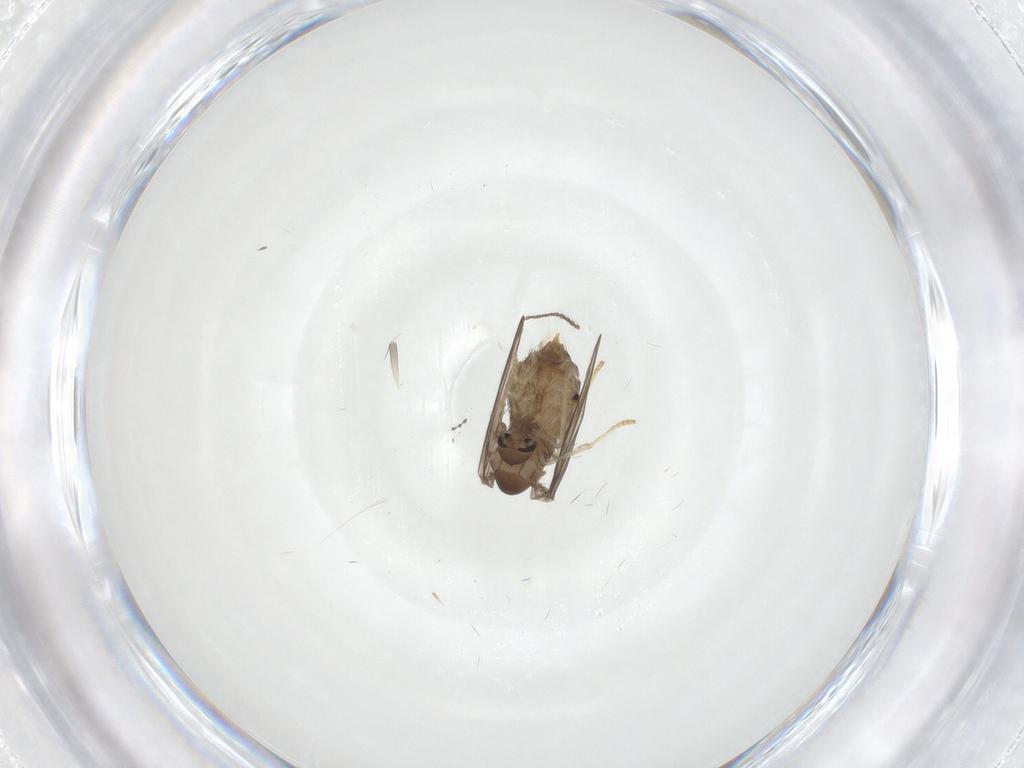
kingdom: Animalia
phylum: Arthropoda
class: Insecta
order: Diptera
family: Psychodidae
